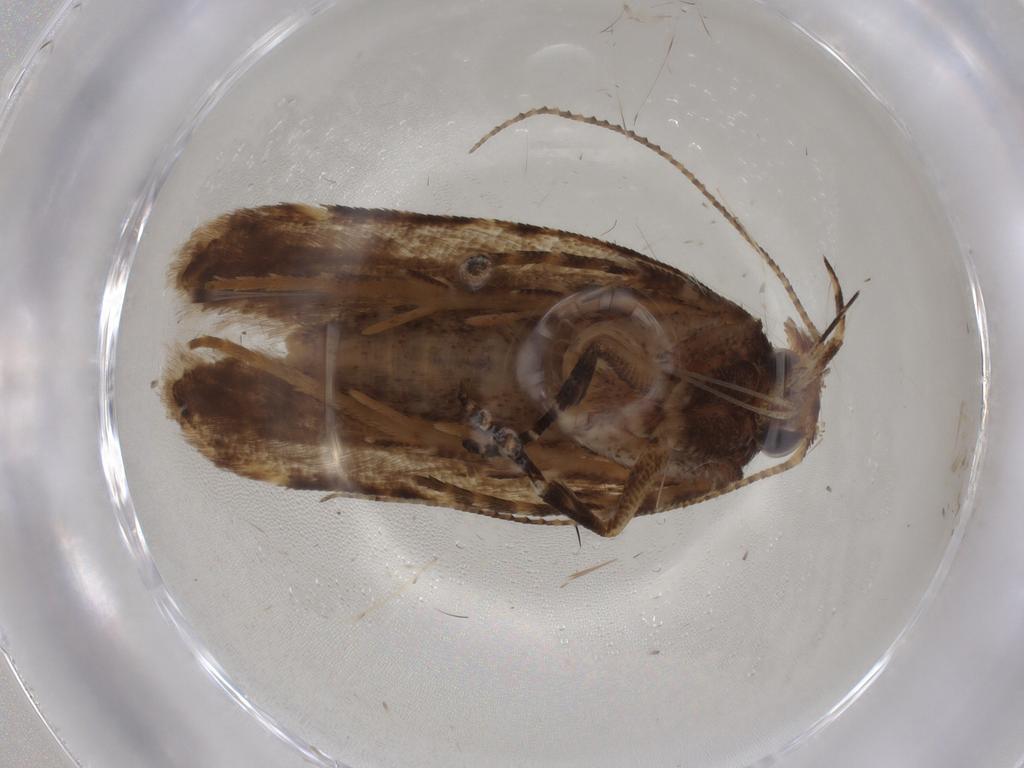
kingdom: Animalia
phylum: Arthropoda
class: Insecta
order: Lepidoptera
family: Gelechiidae
